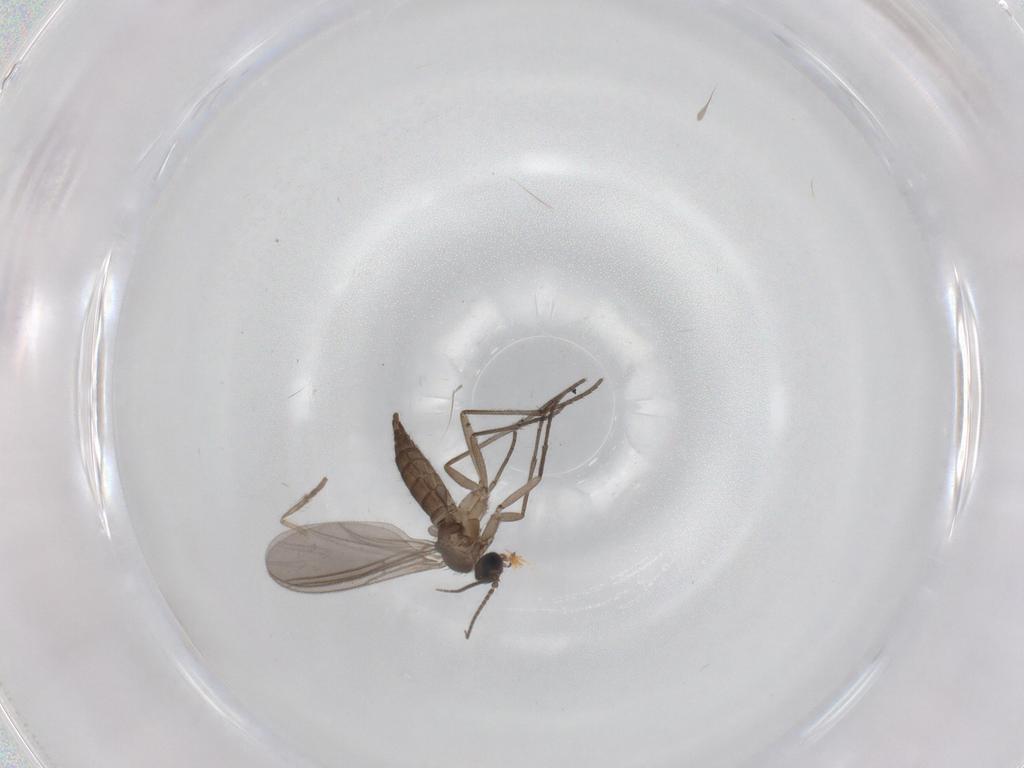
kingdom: Animalia
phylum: Arthropoda
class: Insecta
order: Diptera
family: Sciaridae
